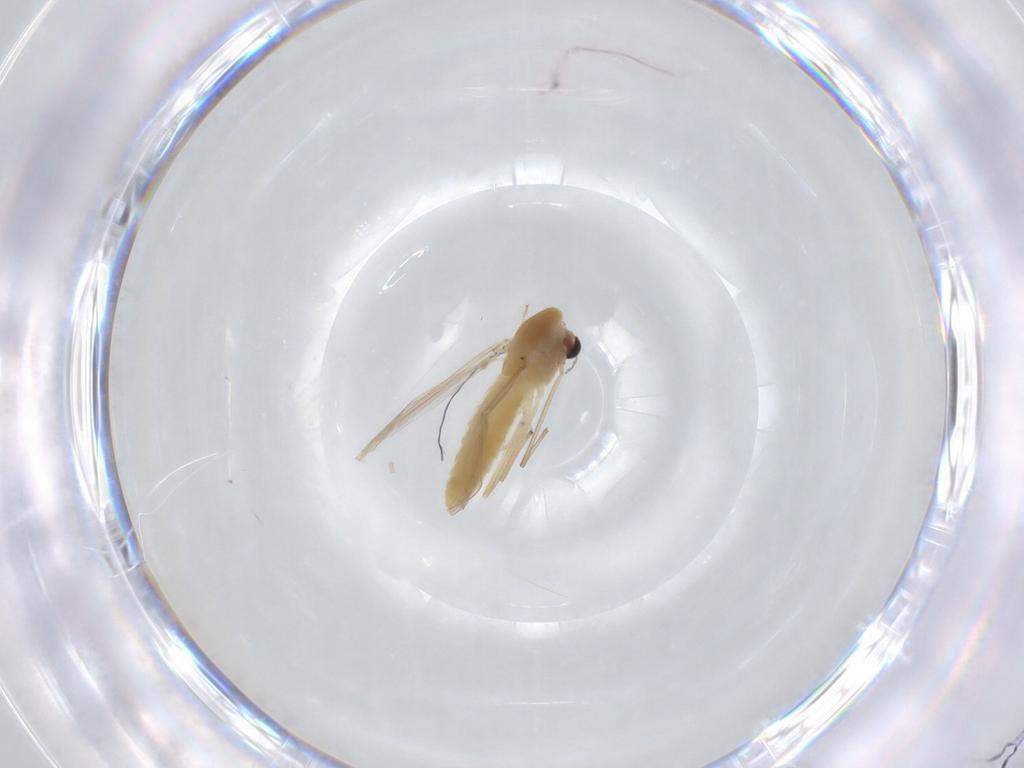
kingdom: Animalia
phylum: Arthropoda
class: Insecta
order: Diptera
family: Chironomidae
